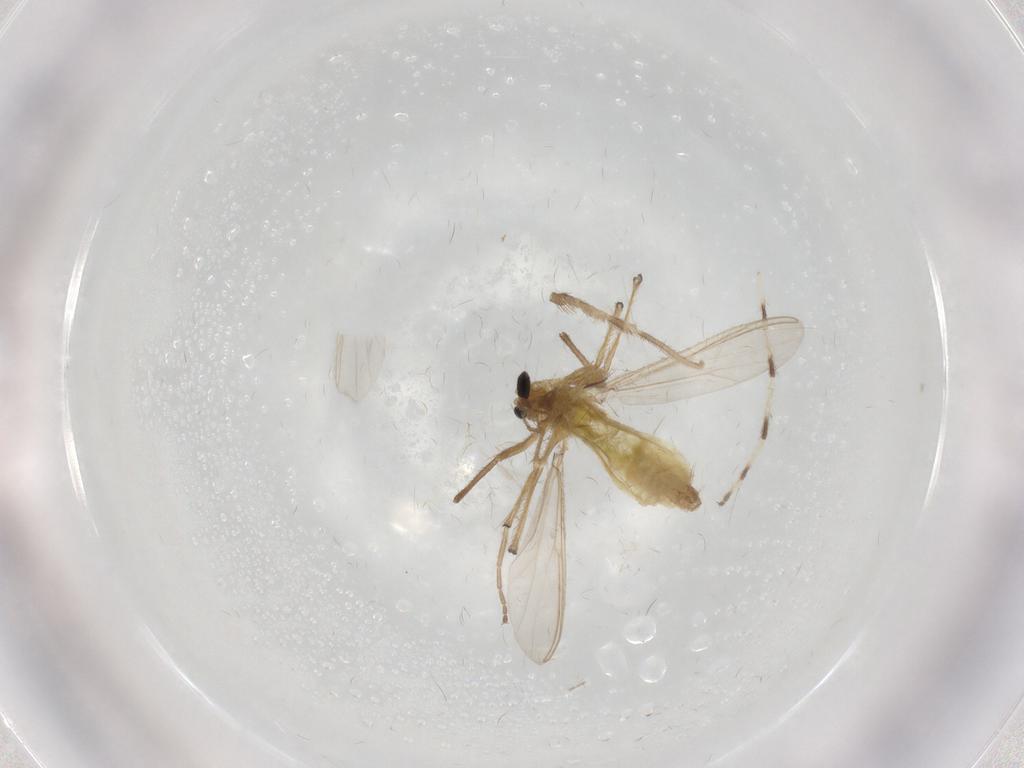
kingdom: Animalia
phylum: Arthropoda
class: Insecta
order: Diptera
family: Chironomidae
